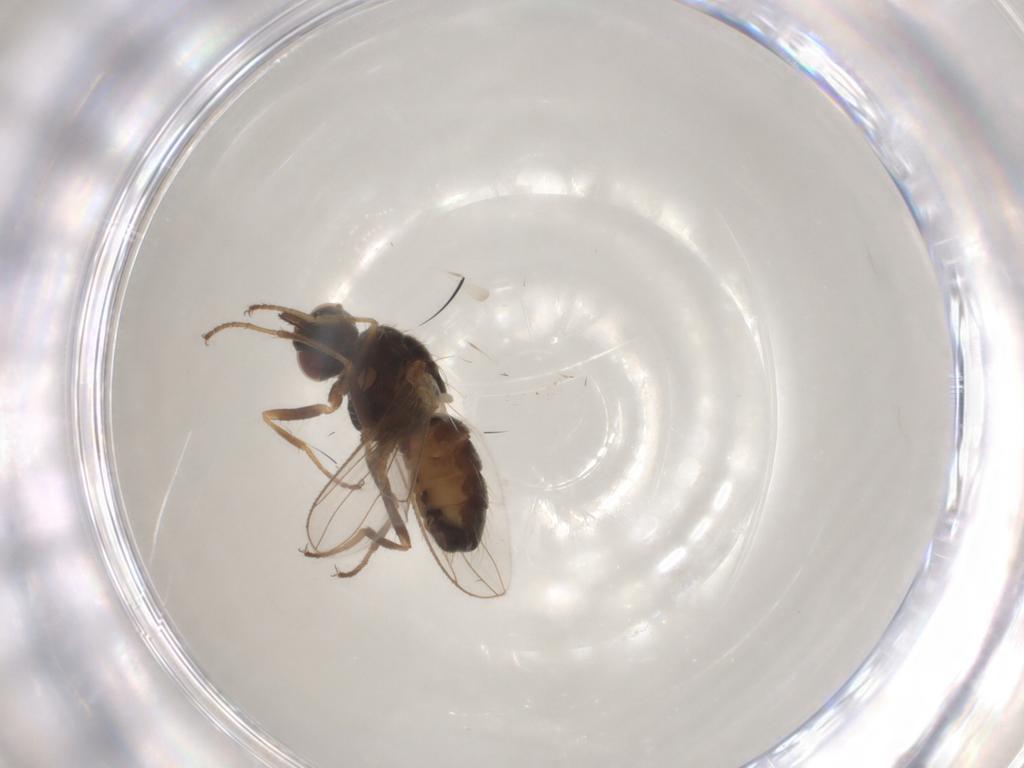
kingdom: Animalia
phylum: Arthropoda
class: Insecta
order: Diptera
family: Muscidae
